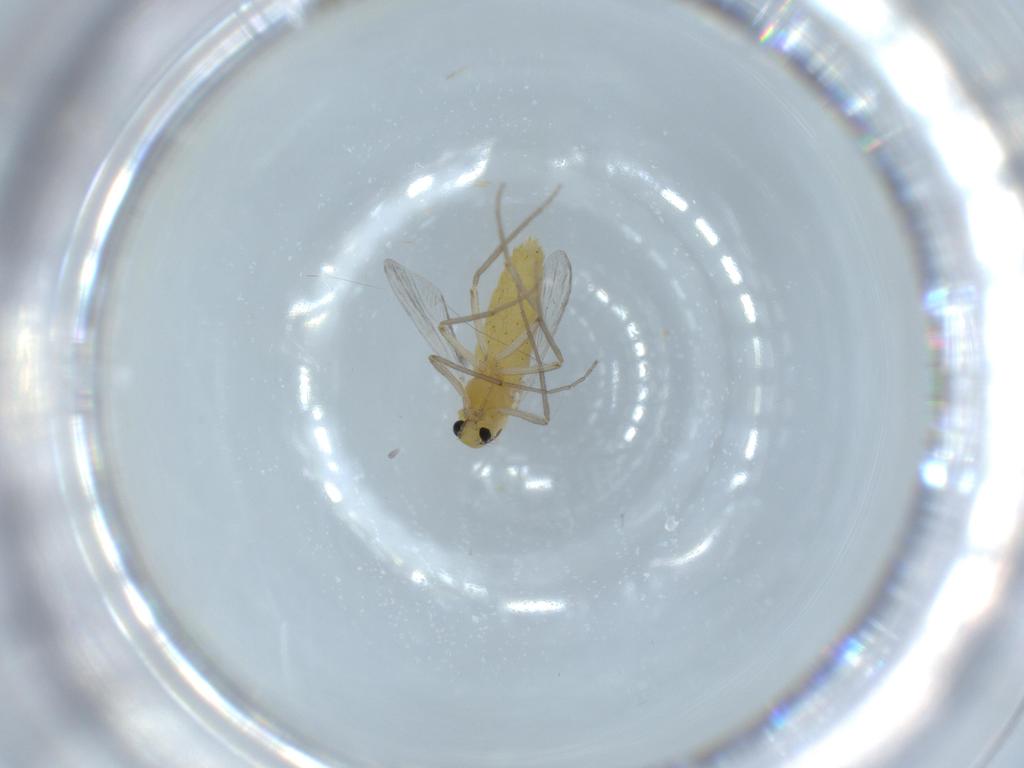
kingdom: Animalia
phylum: Arthropoda
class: Insecta
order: Diptera
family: Chironomidae
